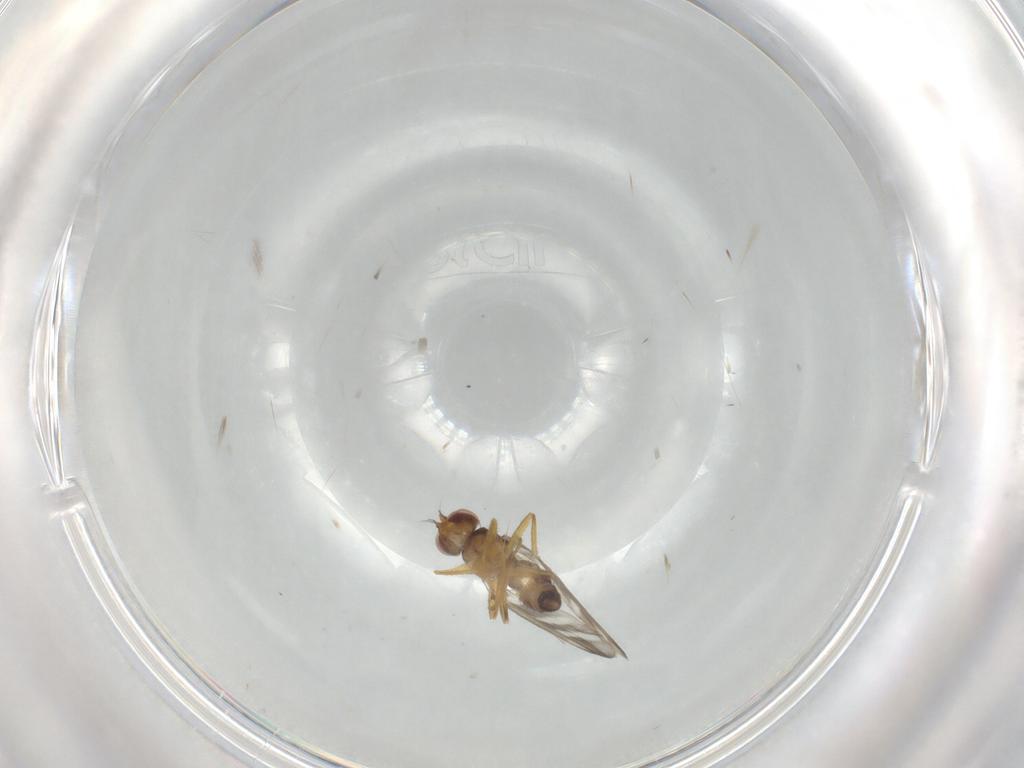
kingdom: Animalia
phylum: Arthropoda
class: Insecta
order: Diptera
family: Periscelididae
